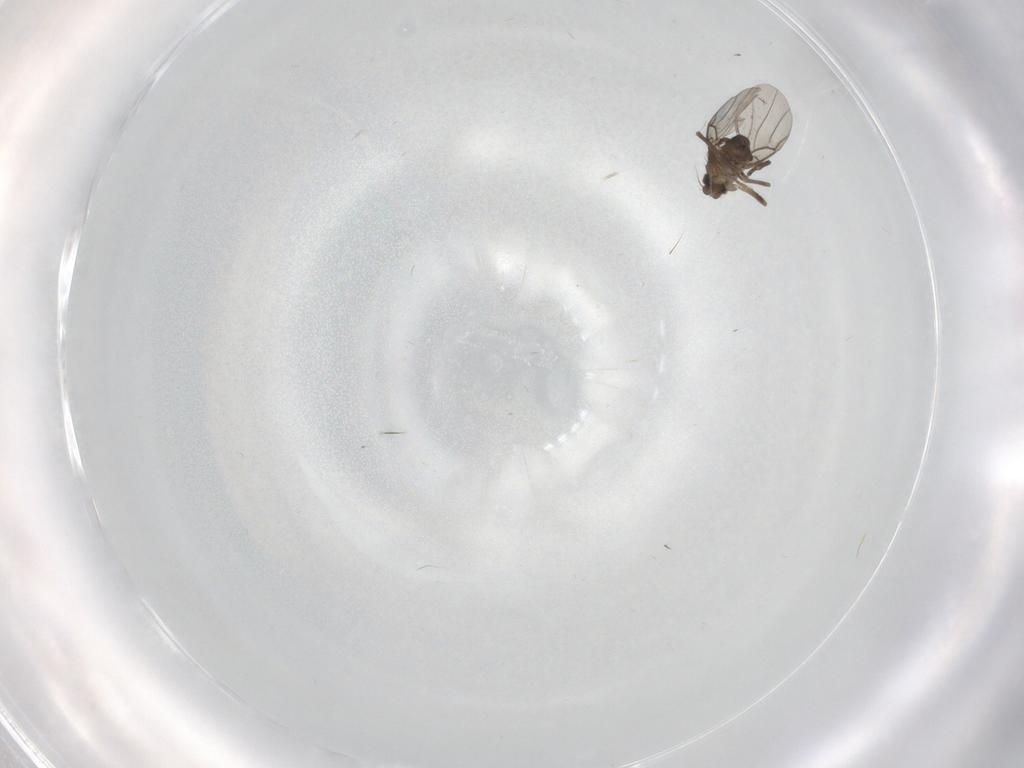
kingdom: Animalia
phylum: Arthropoda
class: Insecta
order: Diptera
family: Phoridae
